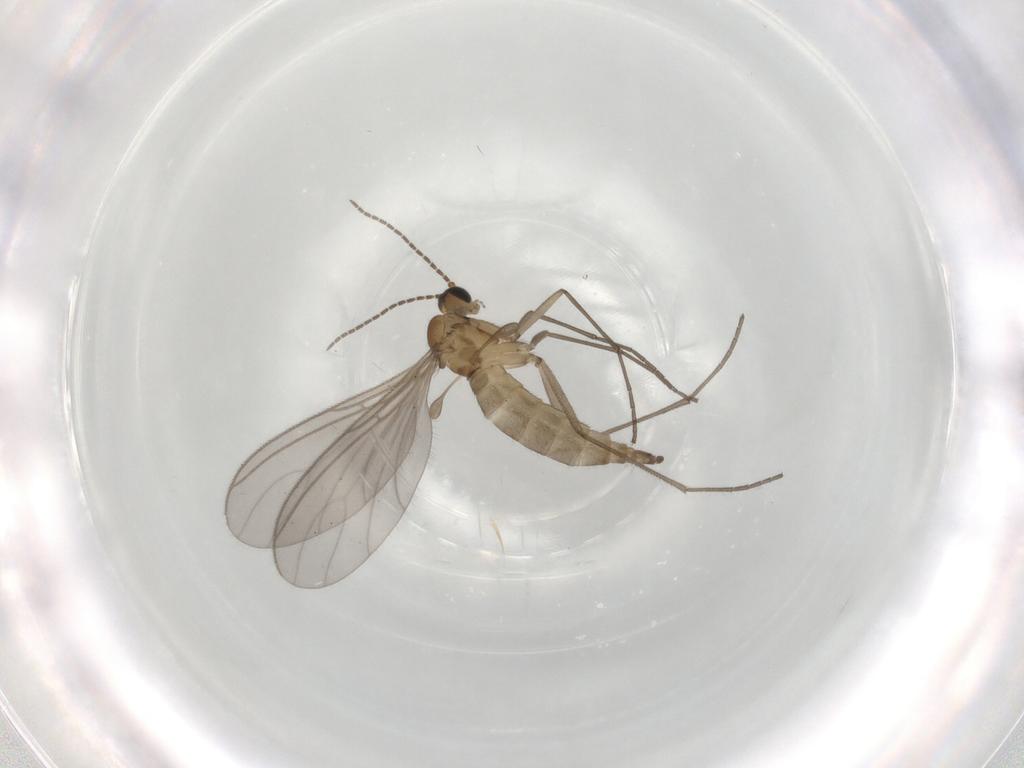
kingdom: Animalia
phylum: Arthropoda
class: Insecta
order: Diptera
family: Sciaridae
